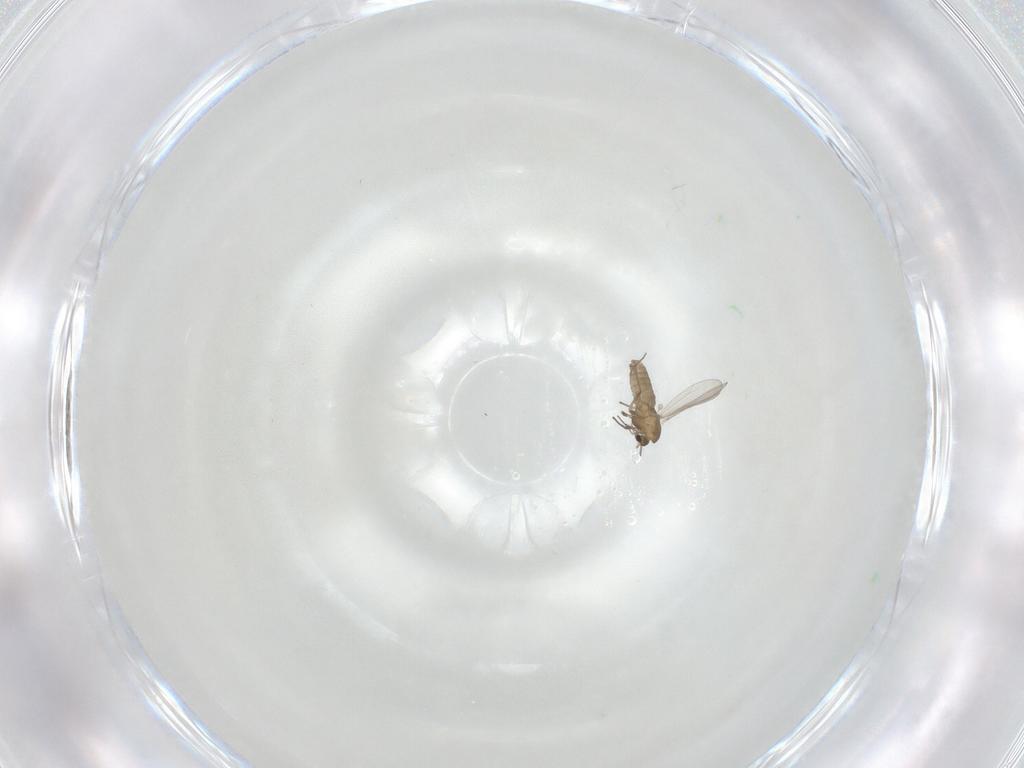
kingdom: Animalia
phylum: Arthropoda
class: Insecta
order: Diptera
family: Chironomidae
